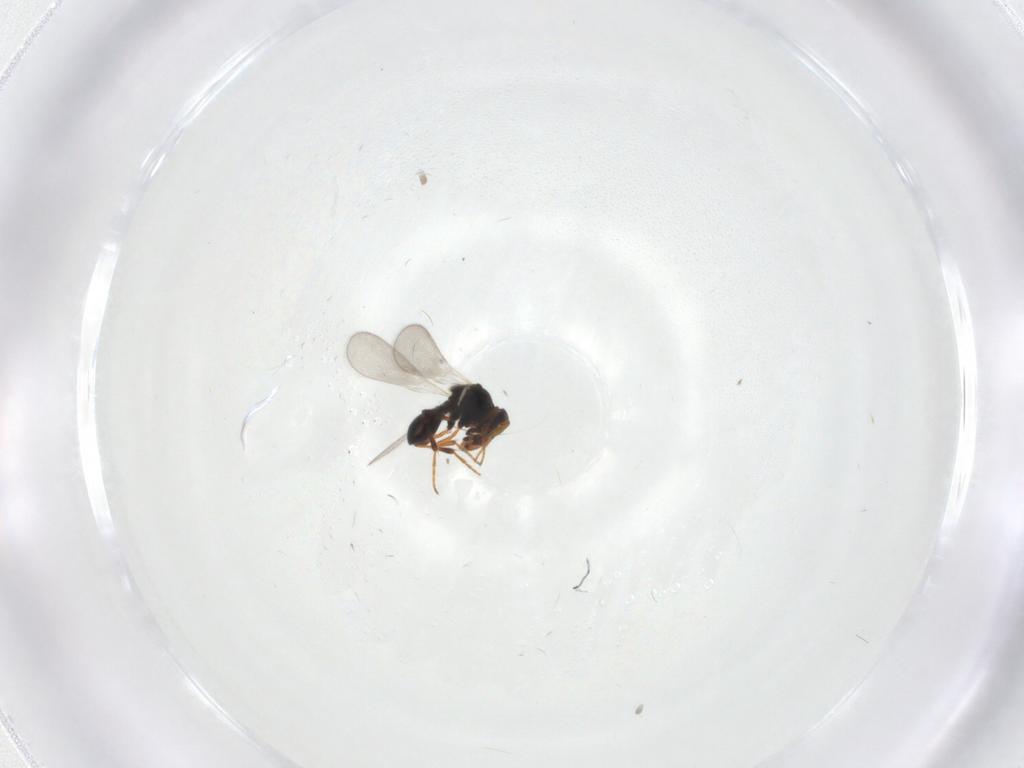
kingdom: Animalia
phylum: Arthropoda
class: Insecta
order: Hymenoptera
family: Platygastridae
